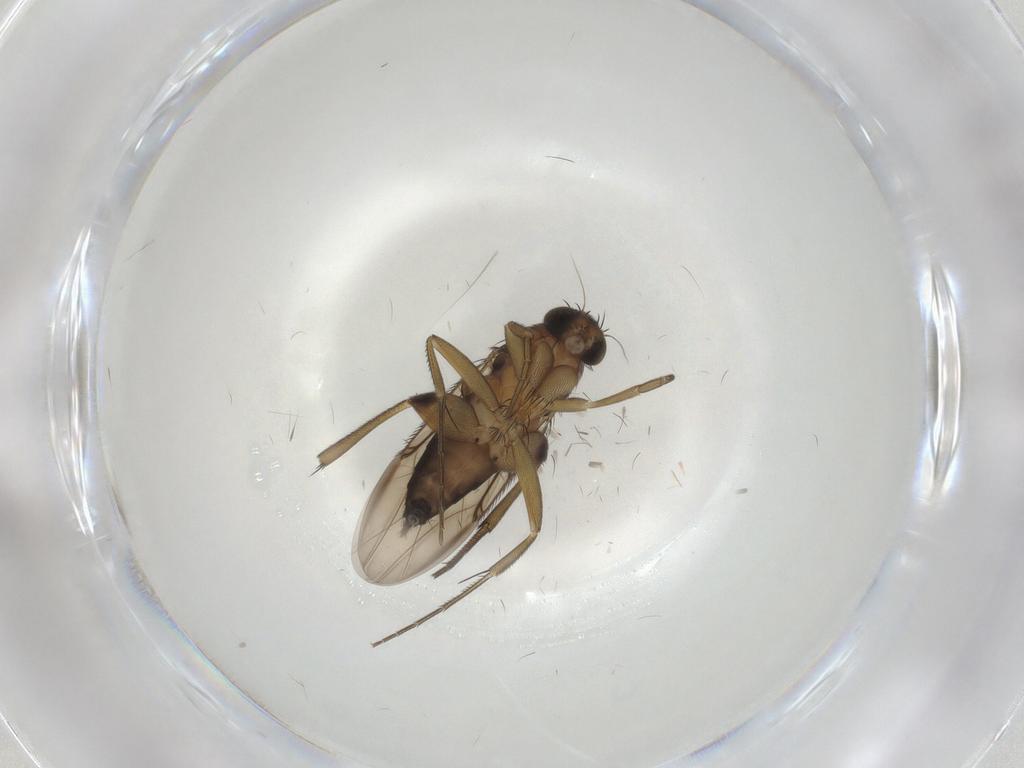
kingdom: Animalia
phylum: Arthropoda
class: Insecta
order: Diptera
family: Phoridae
